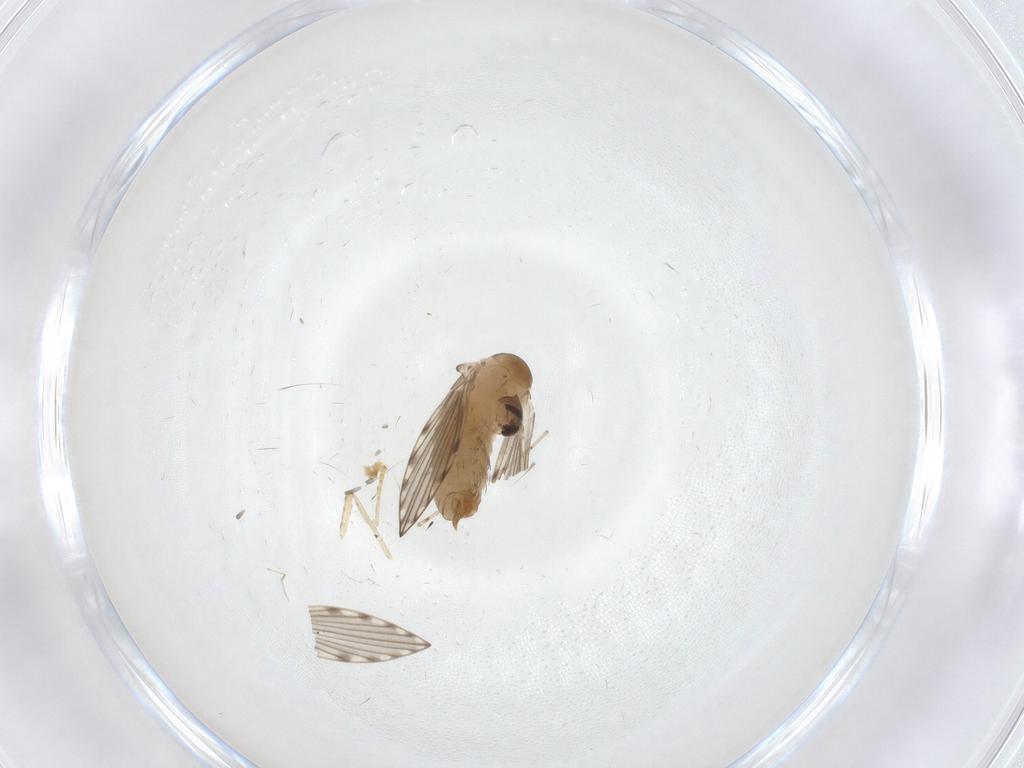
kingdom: Animalia
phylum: Arthropoda
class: Insecta
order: Diptera
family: Psychodidae
